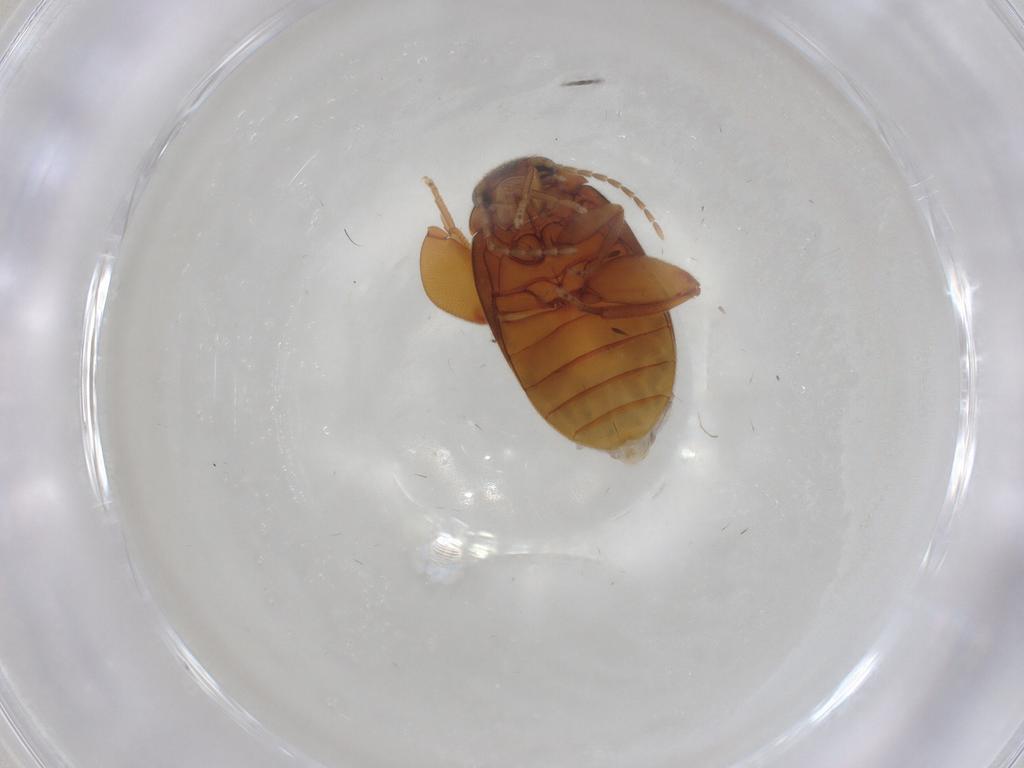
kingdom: Animalia
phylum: Arthropoda
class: Insecta
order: Coleoptera
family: Scirtidae
